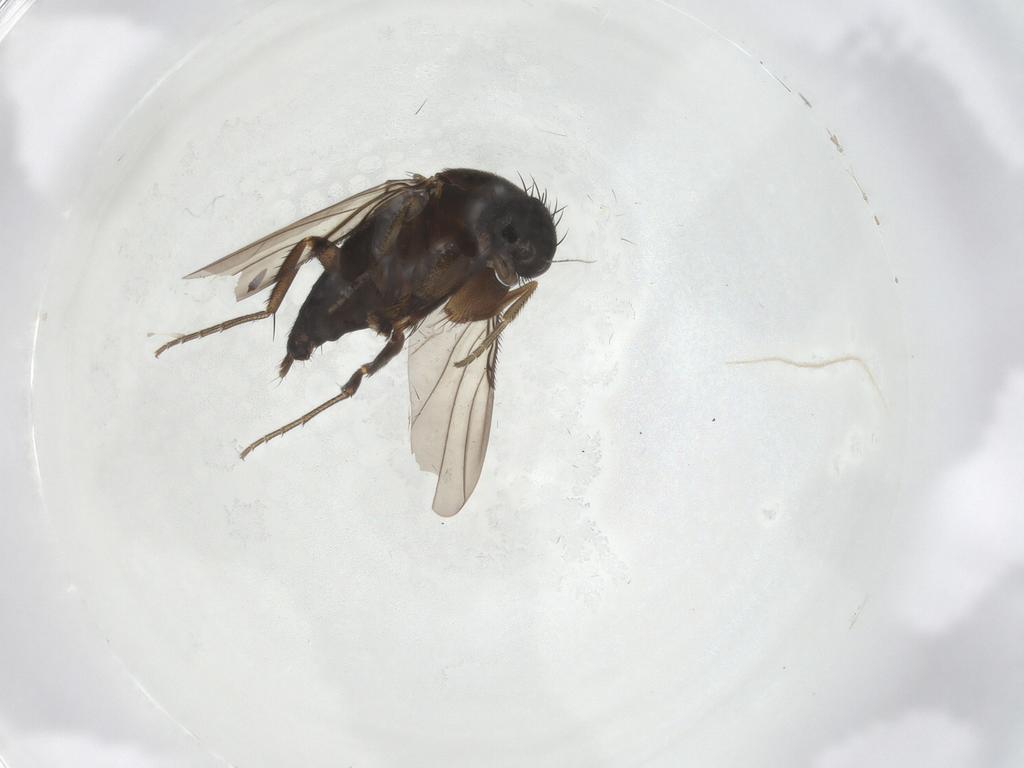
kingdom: Animalia
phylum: Arthropoda
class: Insecta
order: Diptera
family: Phoridae
